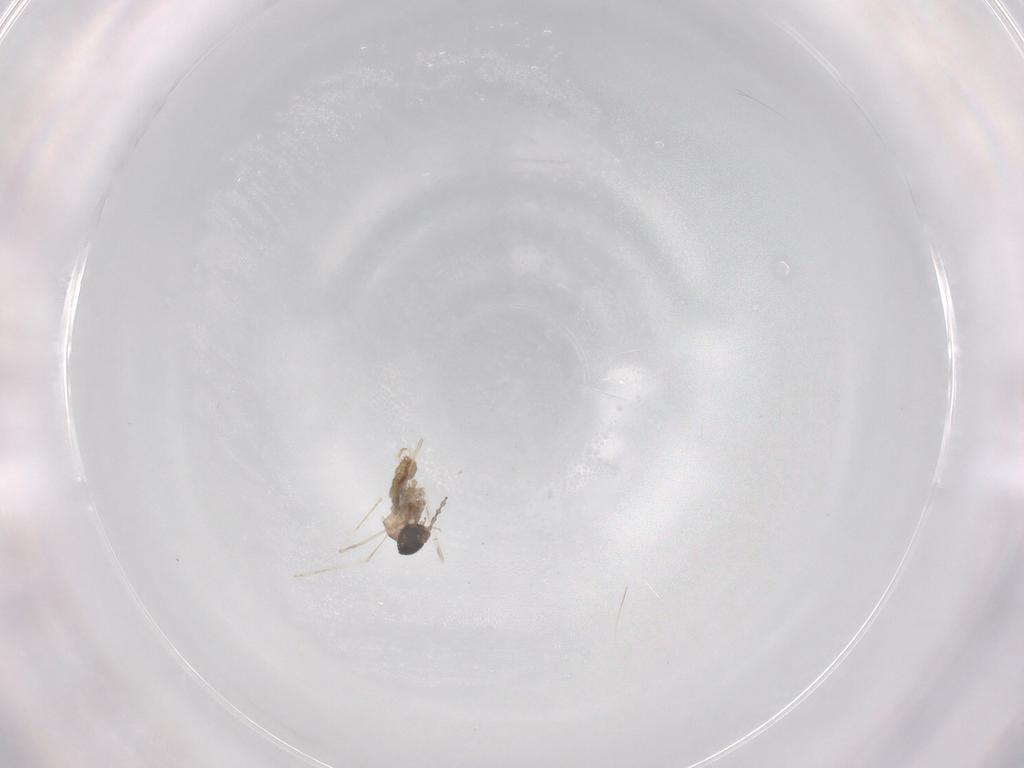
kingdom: Animalia
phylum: Arthropoda
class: Insecta
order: Diptera
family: Cecidomyiidae
